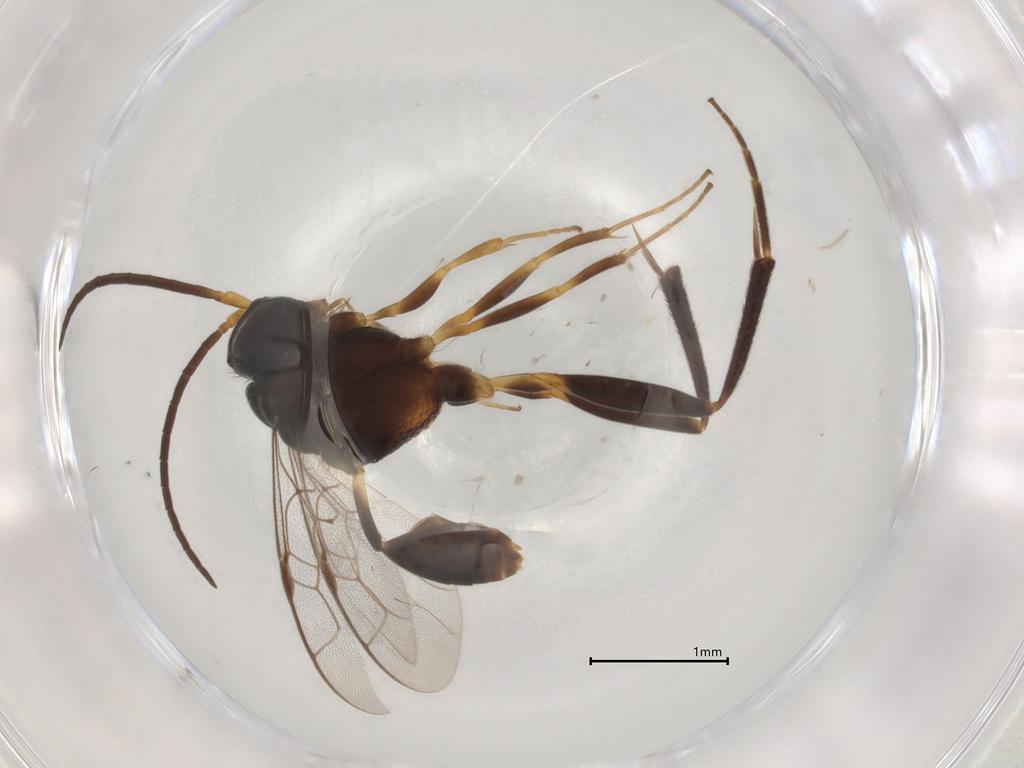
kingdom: Animalia
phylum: Arthropoda
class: Insecta
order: Hymenoptera
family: Evaniidae
